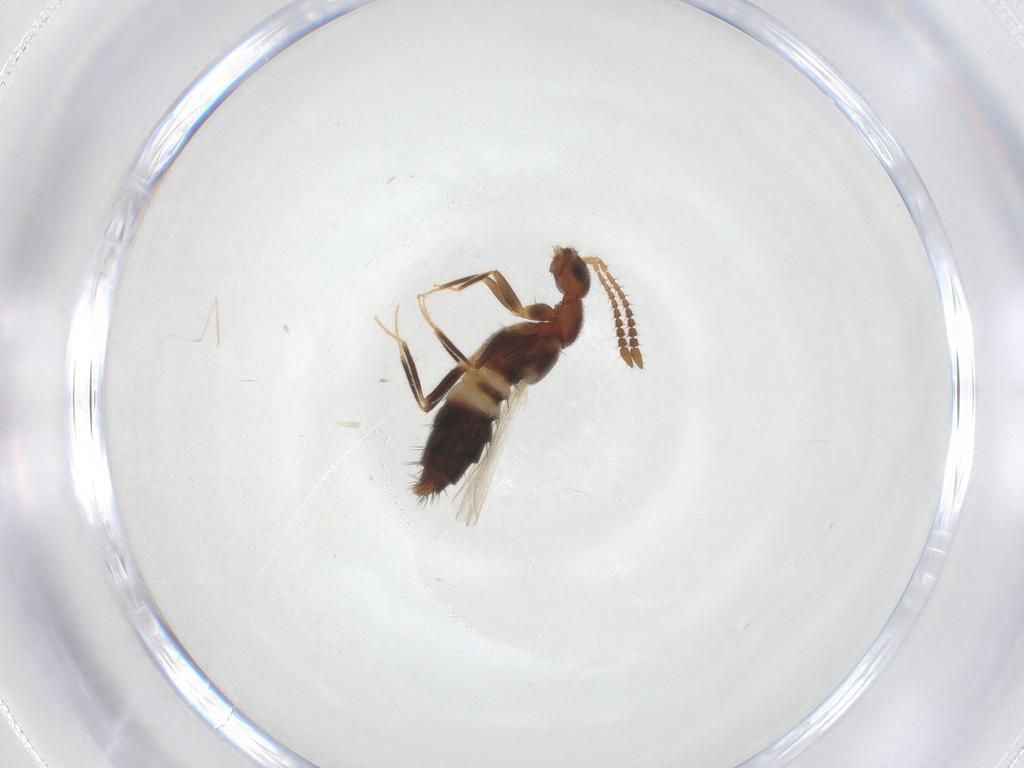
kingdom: Animalia
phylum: Arthropoda
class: Insecta
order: Coleoptera
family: Staphylinidae
